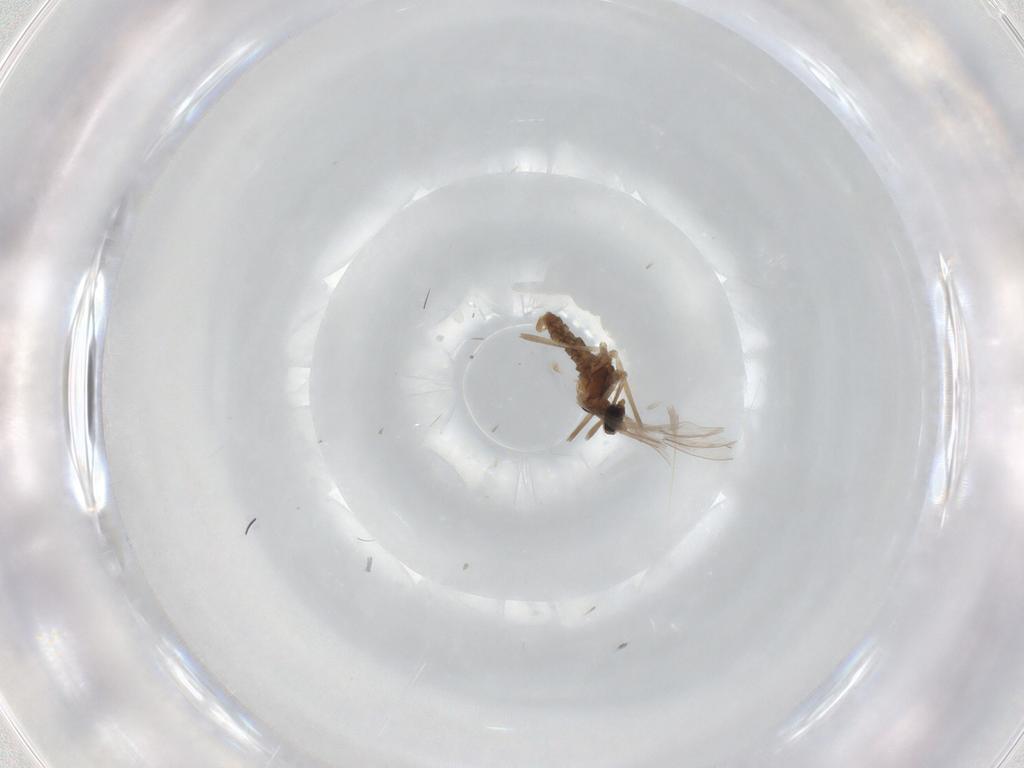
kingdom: Animalia
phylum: Arthropoda
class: Insecta
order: Diptera
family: Cecidomyiidae
